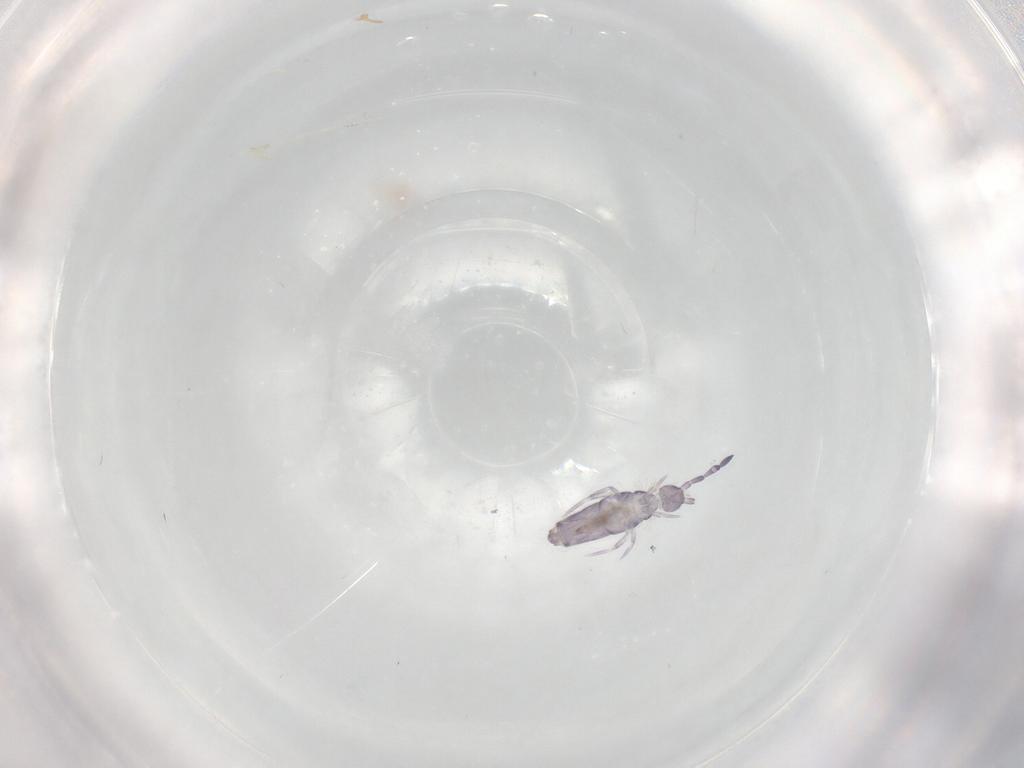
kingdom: Animalia
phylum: Arthropoda
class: Collembola
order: Entomobryomorpha
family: Entomobryidae
